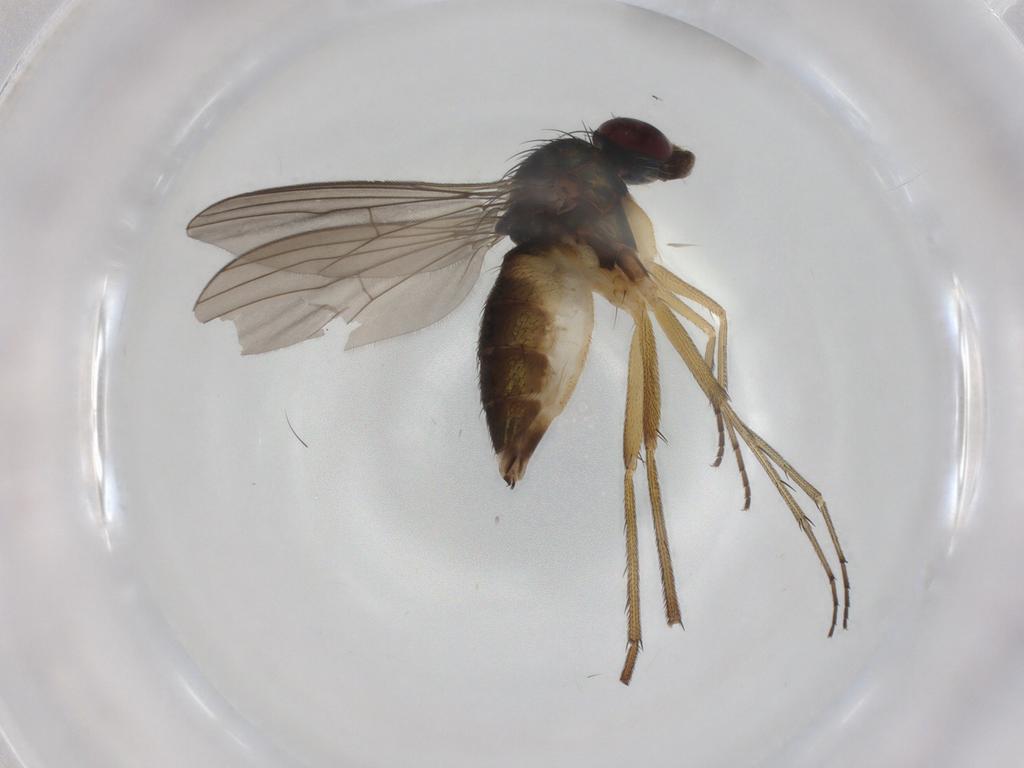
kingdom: Animalia
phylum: Arthropoda
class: Insecta
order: Diptera
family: Dolichopodidae
